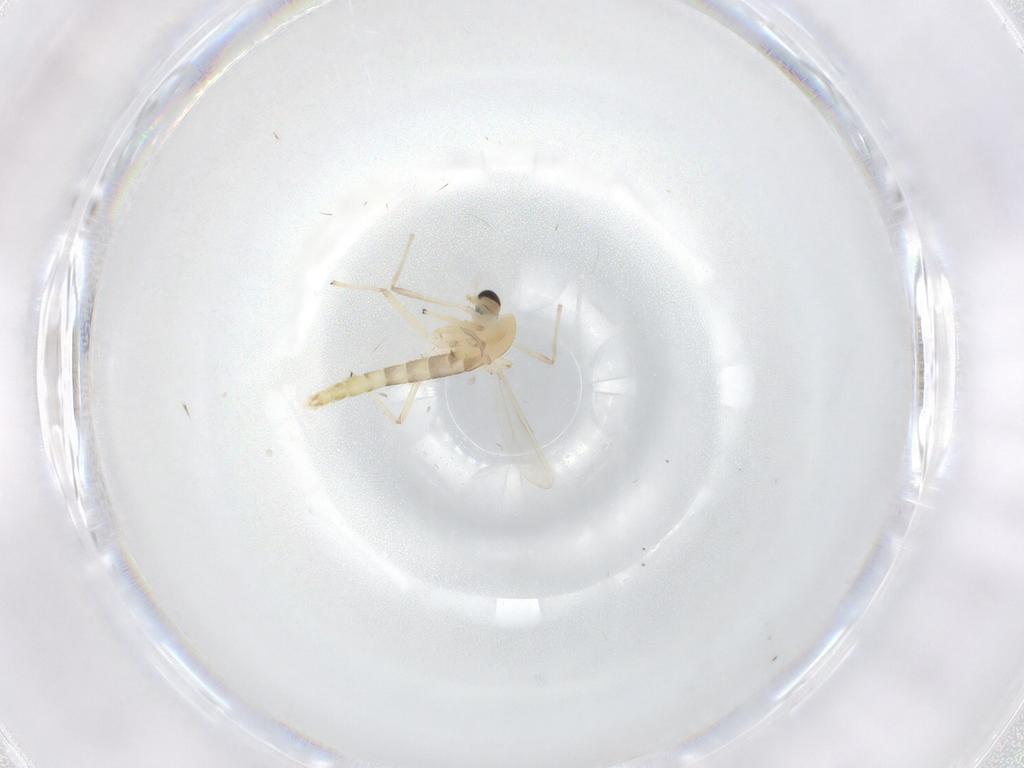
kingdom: Animalia
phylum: Arthropoda
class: Insecta
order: Diptera
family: Chironomidae
